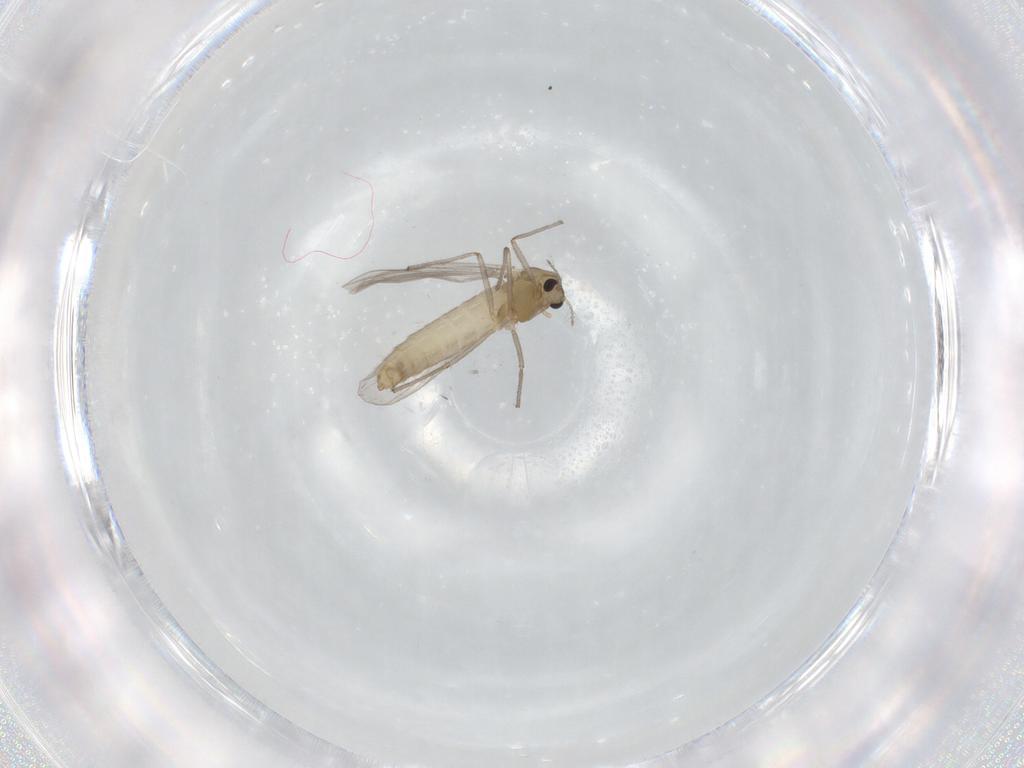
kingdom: Animalia
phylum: Arthropoda
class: Insecta
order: Diptera
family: Chironomidae
